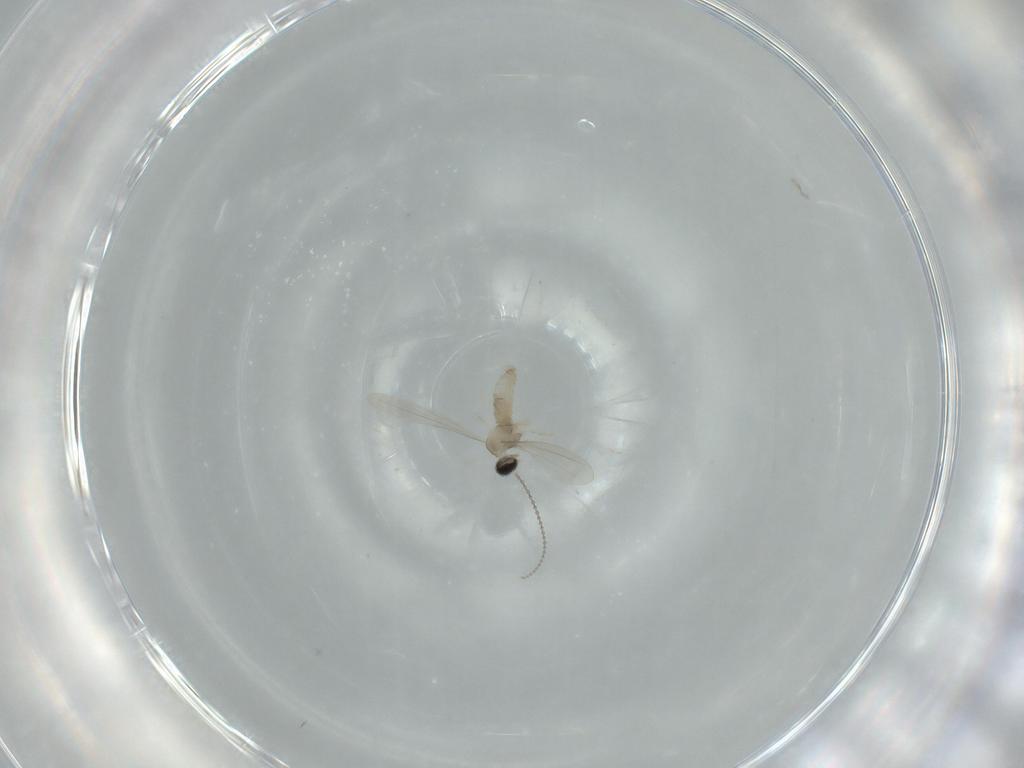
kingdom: Animalia
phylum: Arthropoda
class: Insecta
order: Diptera
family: Cecidomyiidae
